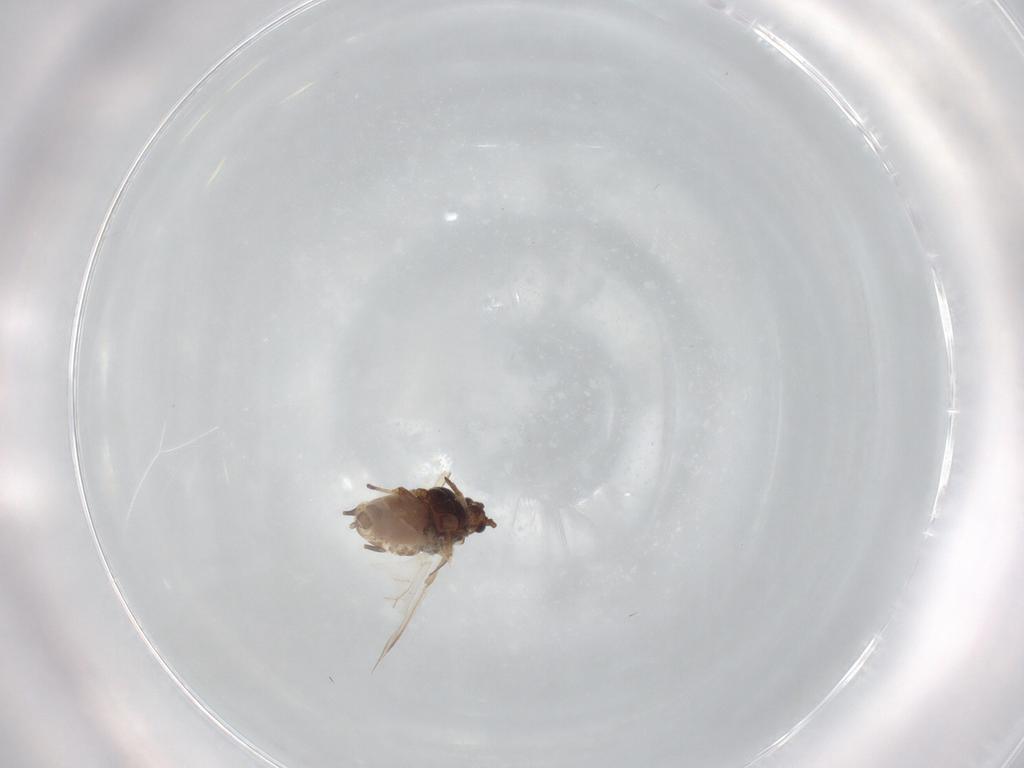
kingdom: Animalia
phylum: Arthropoda
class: Insecta
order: Hemiptera
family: Aphididae
